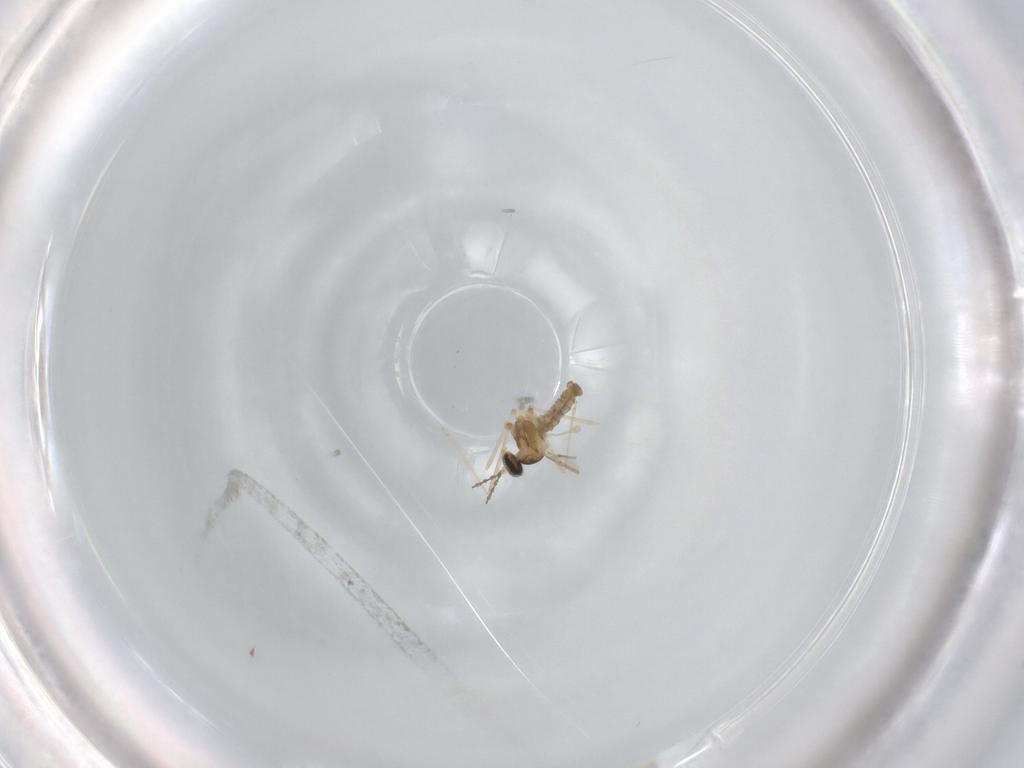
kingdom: Animalia
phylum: Arthropoda
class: Insecta
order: Diptera
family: Cecidomyiidae
